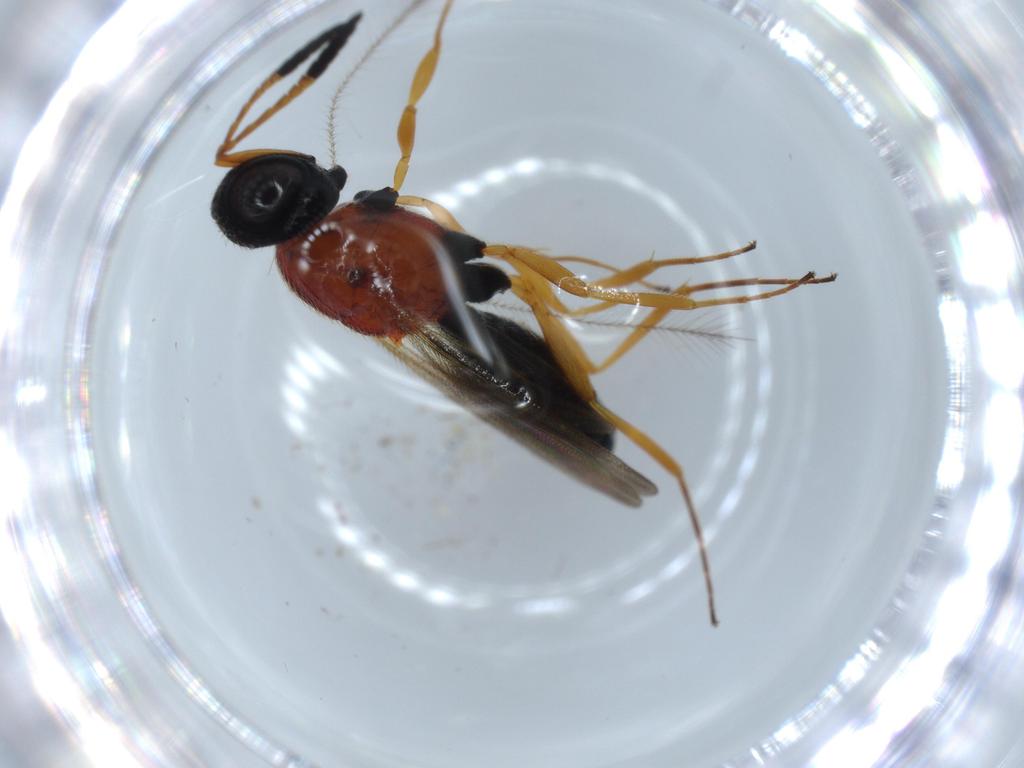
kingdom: Animalia
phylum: Arthropoda
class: Insecta
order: Hymenoptera
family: Scelionidae
